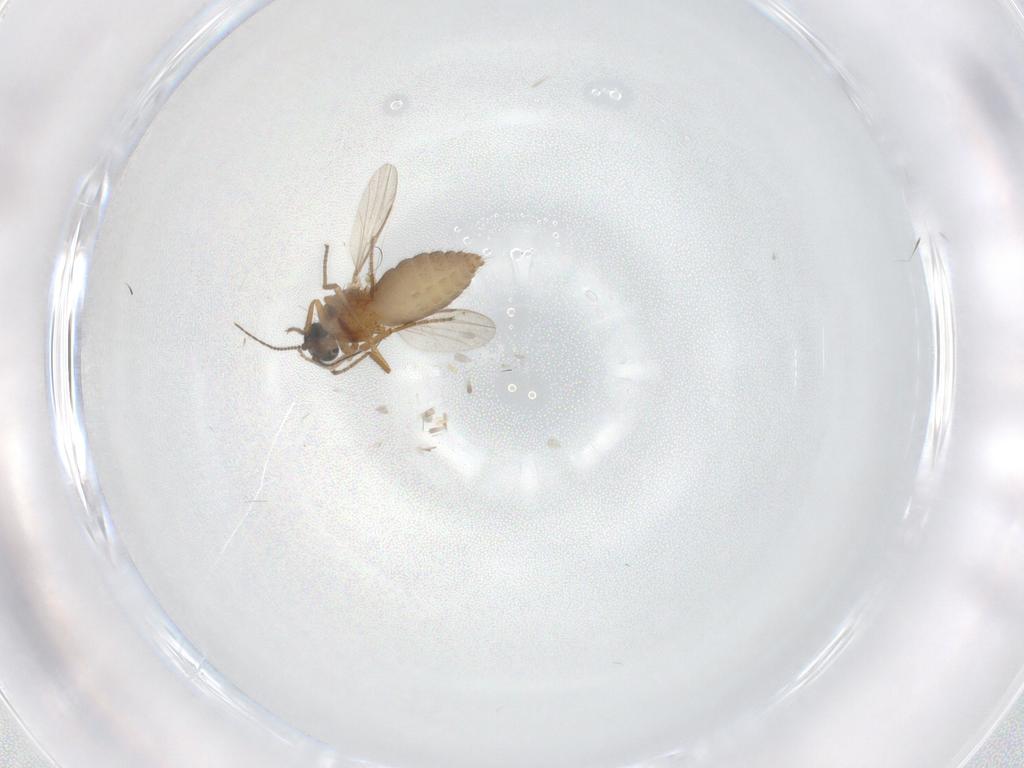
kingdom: Animalia
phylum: Arthropoda
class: Insecta
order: Diptera
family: Ceratopogonidae
